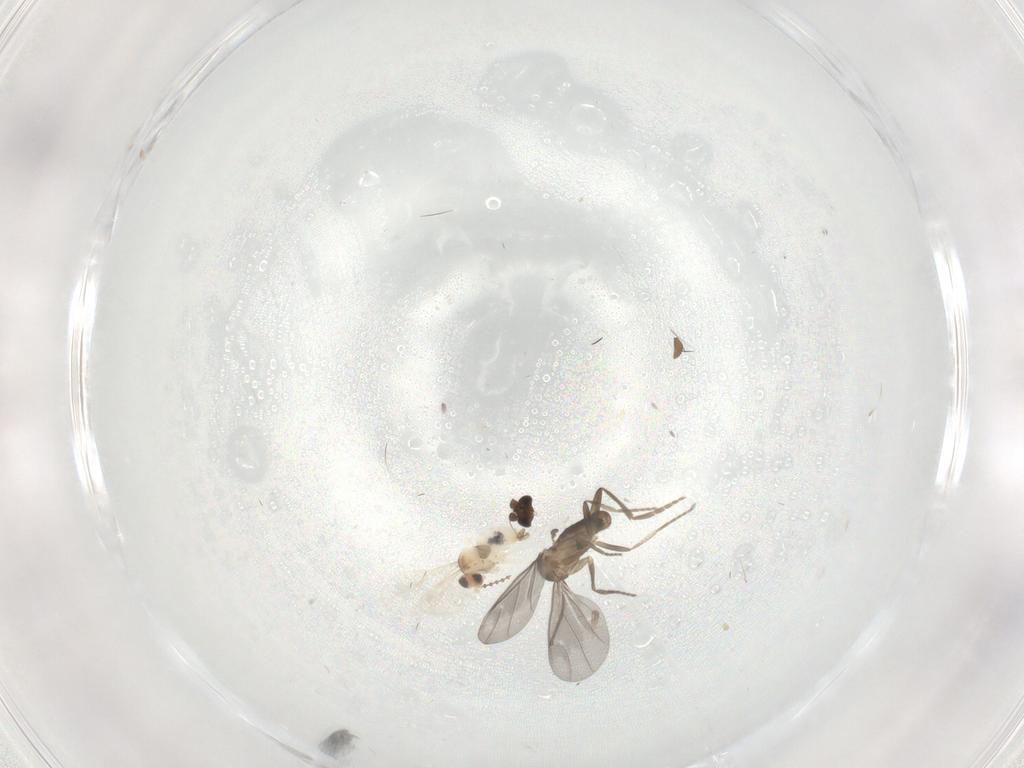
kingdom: Animalia
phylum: Arthropoda
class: Insecta
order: Diptera
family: Phoridae
